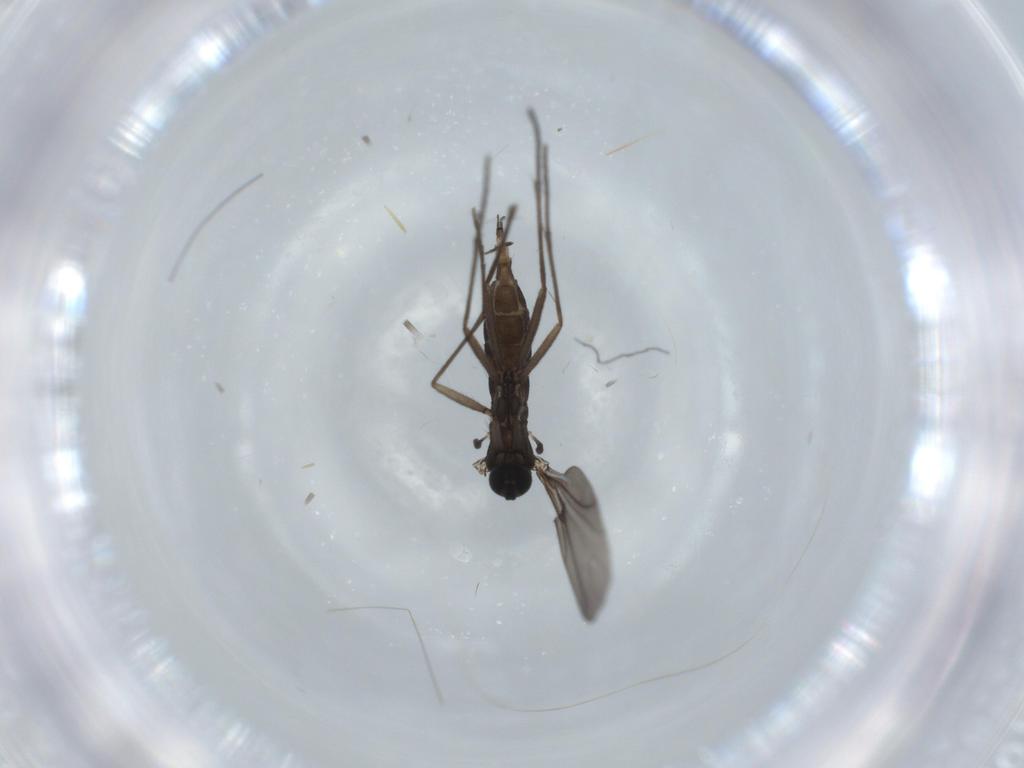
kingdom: Animalia
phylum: Arthropoda
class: Insecta
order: Diptera
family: Sciaridae
